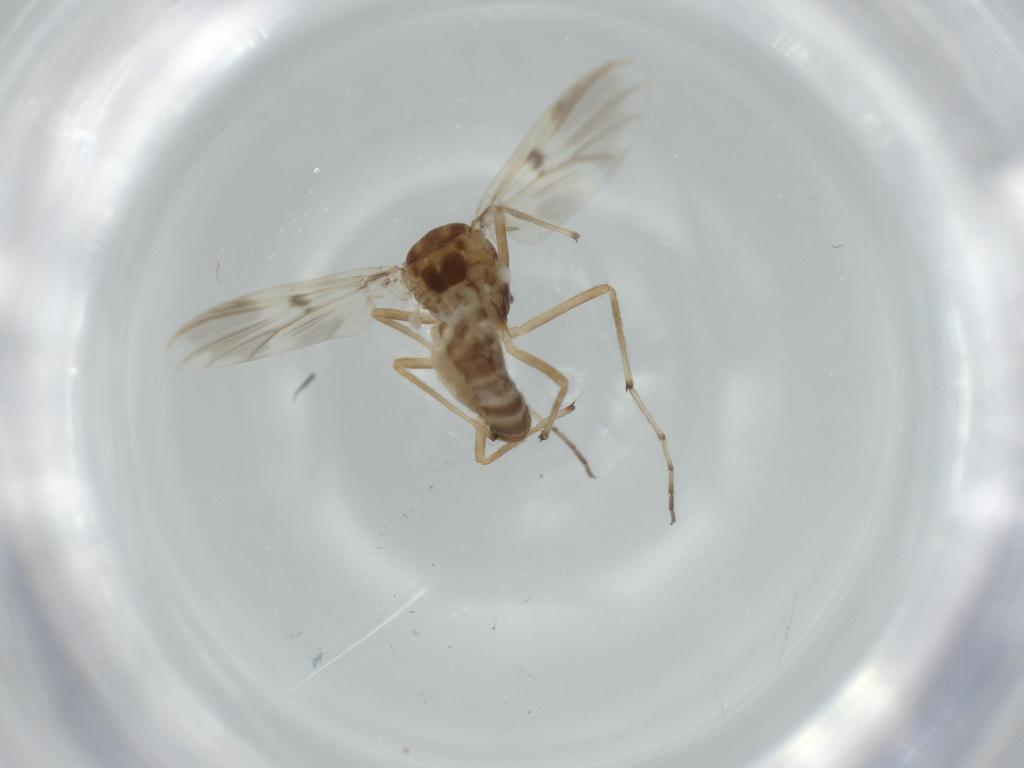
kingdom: Animalia
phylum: Arthropoda
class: Insecta
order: Diptera
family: Chironomidae
